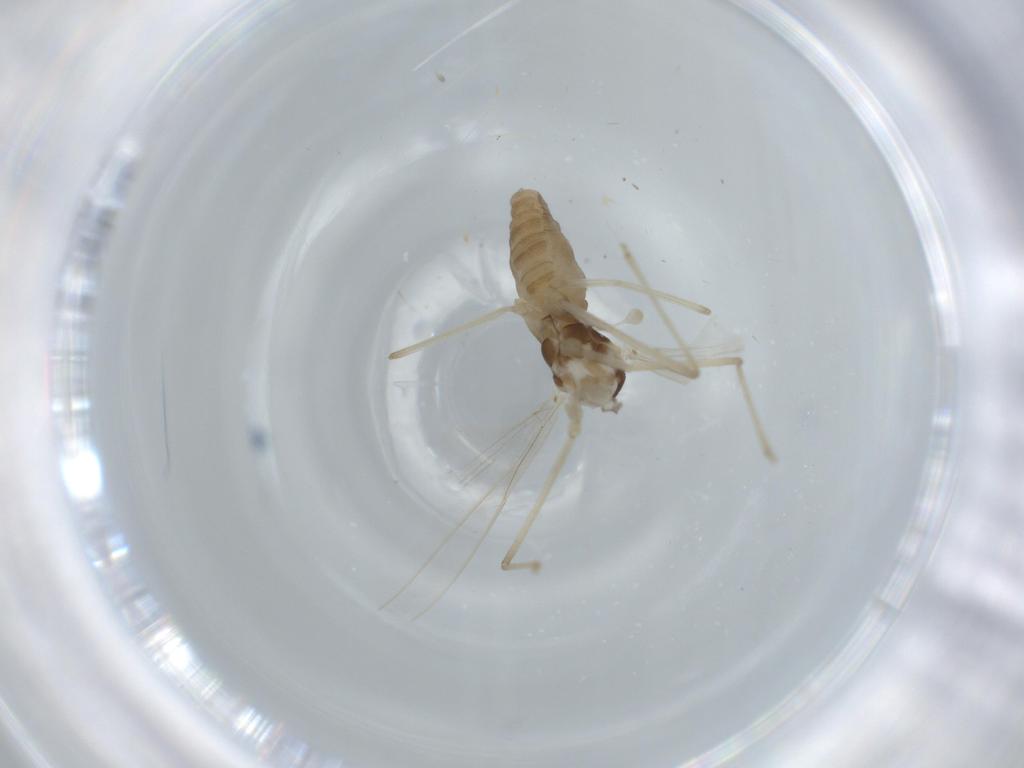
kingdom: Animalia
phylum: Arthropoda
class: Insecta
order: Diptera
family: Cecidomyiidae
